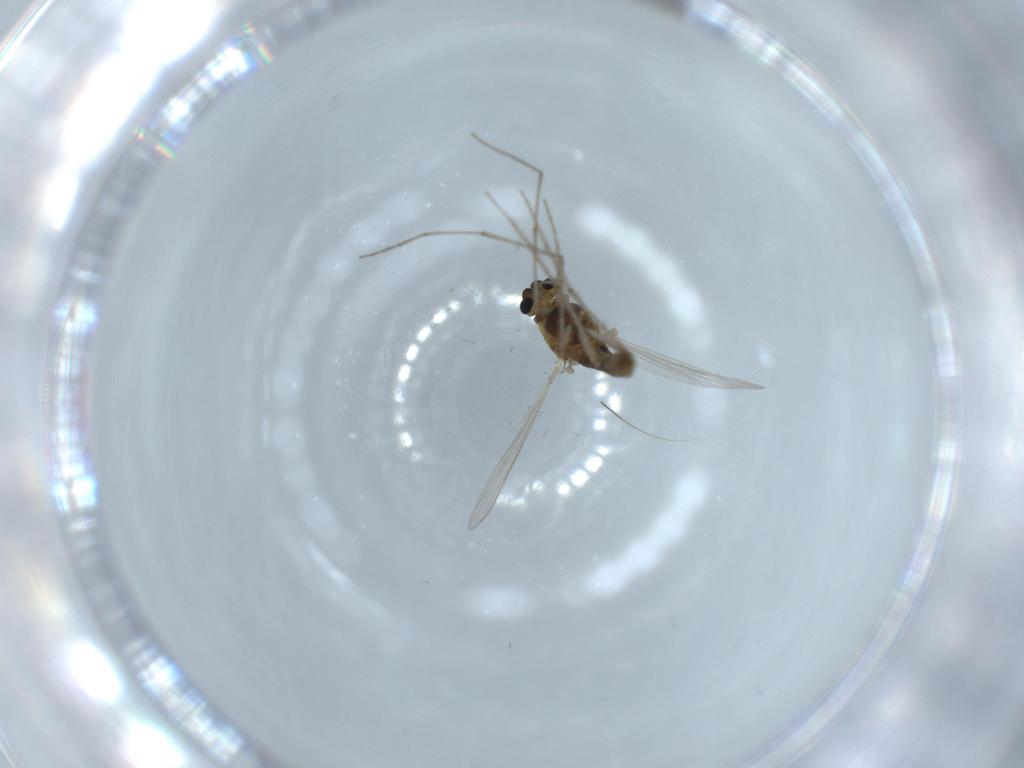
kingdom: Animalia
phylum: Arthropoda
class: Insecta
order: Diptera
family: Chironomidae
